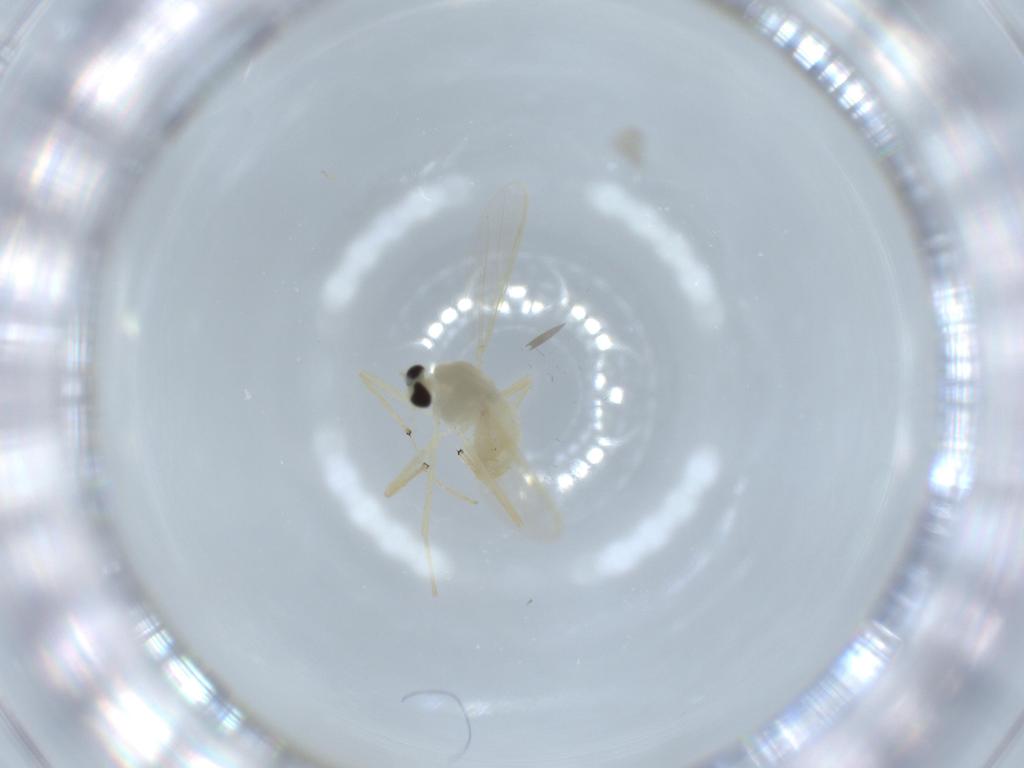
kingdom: Animalia
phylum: Arthropoda
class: Insecta
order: Diptera
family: Chironomidae
